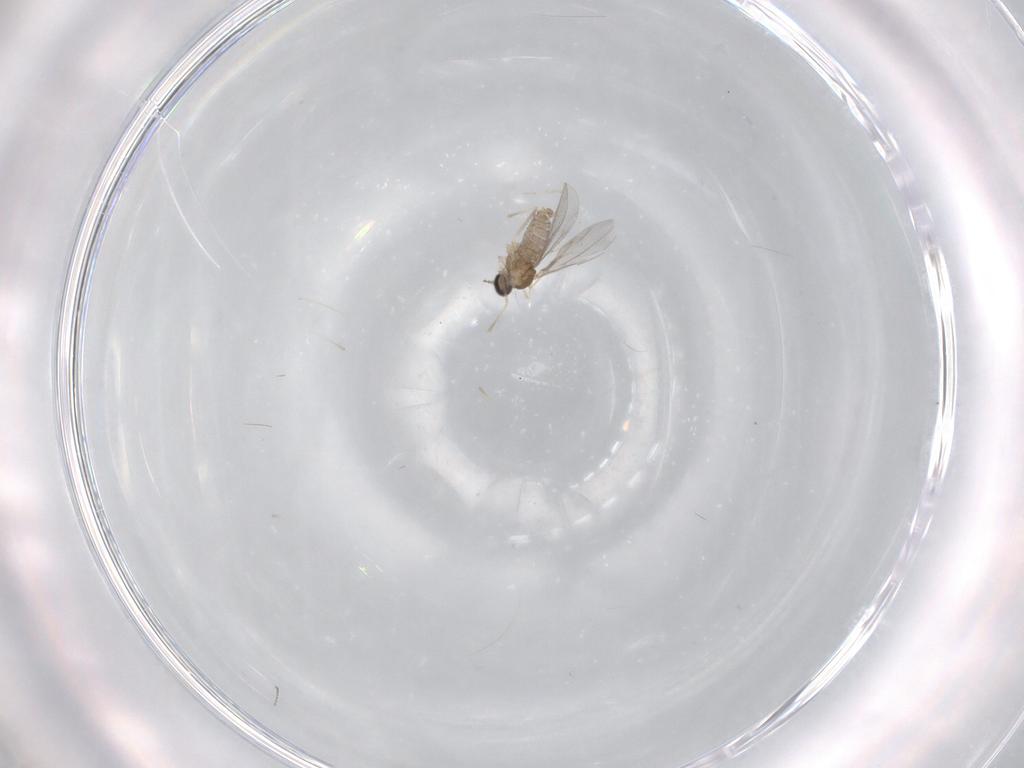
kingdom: Animalia
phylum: Arthropoda
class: Insecta
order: Diptera
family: Cecidomyiidae
